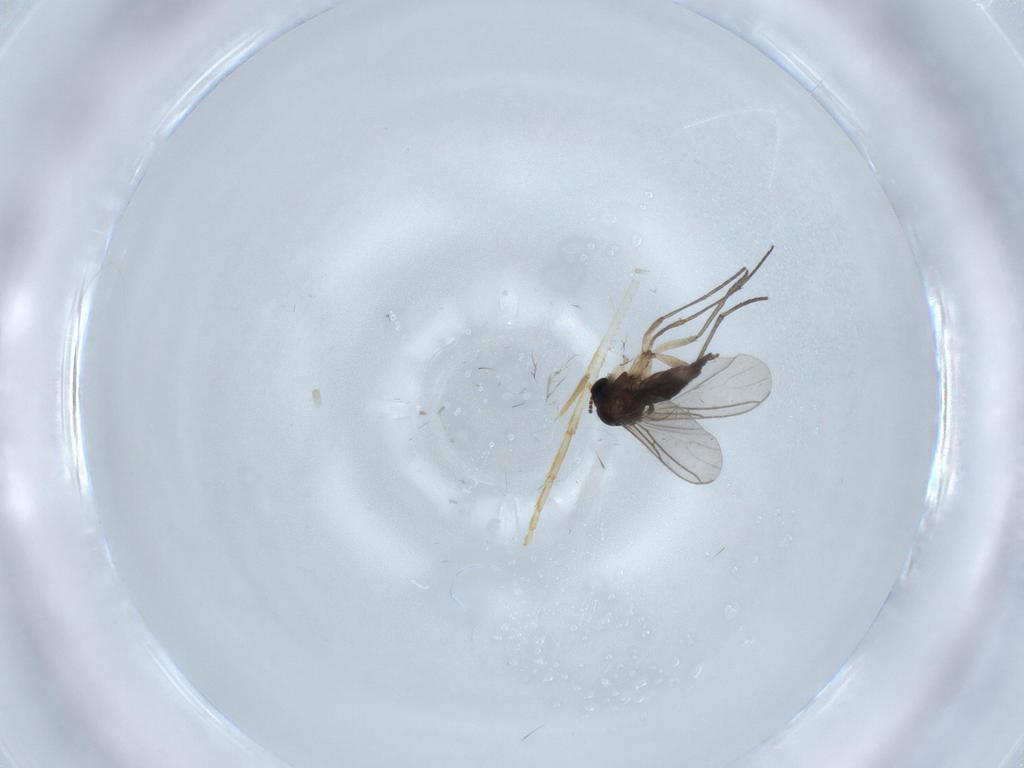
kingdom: Animalia
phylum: Arthropoda
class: Insecta
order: Diptera
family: Sciaridae
